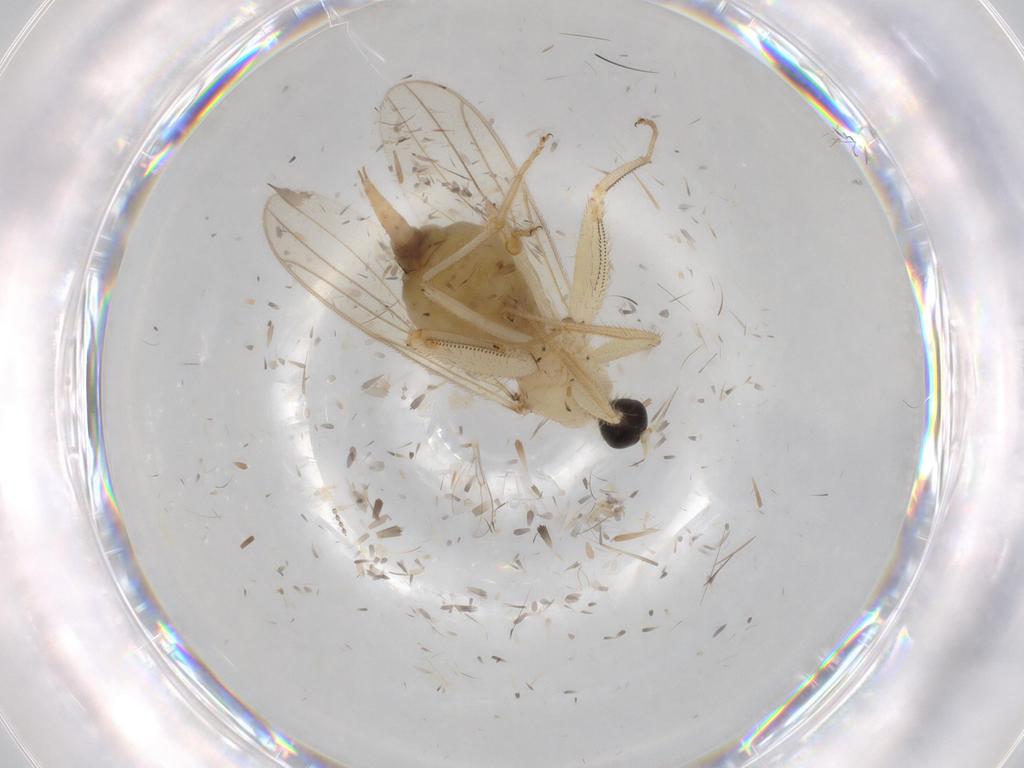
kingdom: Animalia
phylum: Arthropoda
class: Insecta
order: Diptera
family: Hybotidae
